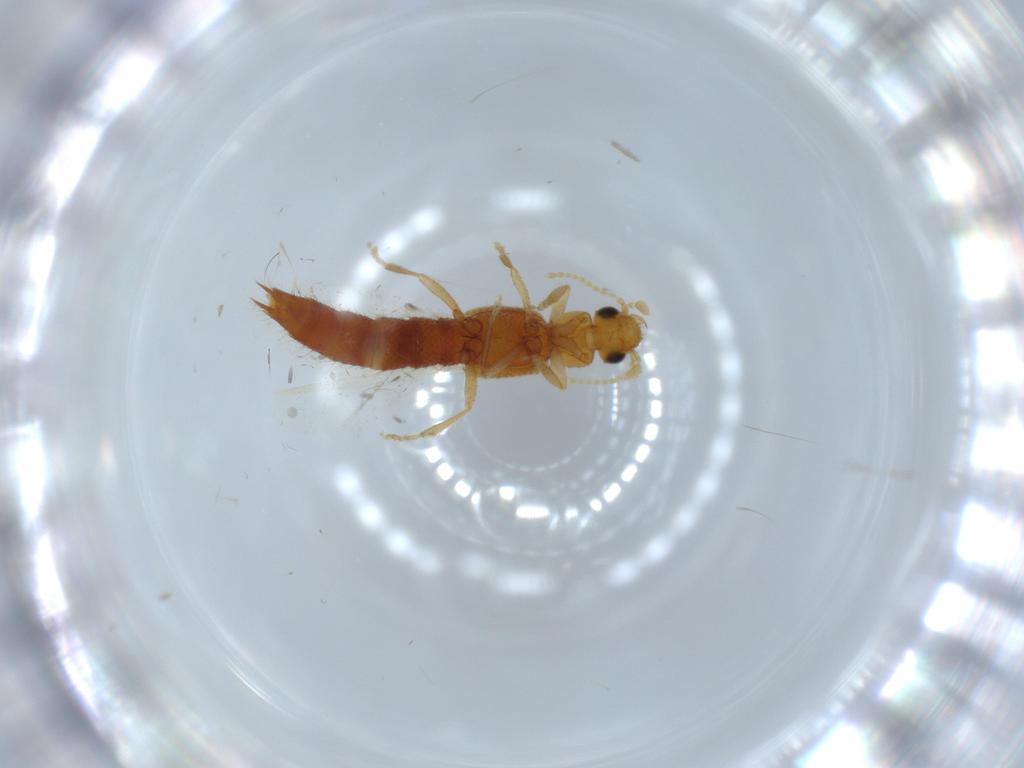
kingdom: Animalia
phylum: Arthropoda
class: Insecta
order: Coleoptera
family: Staphylinidae
